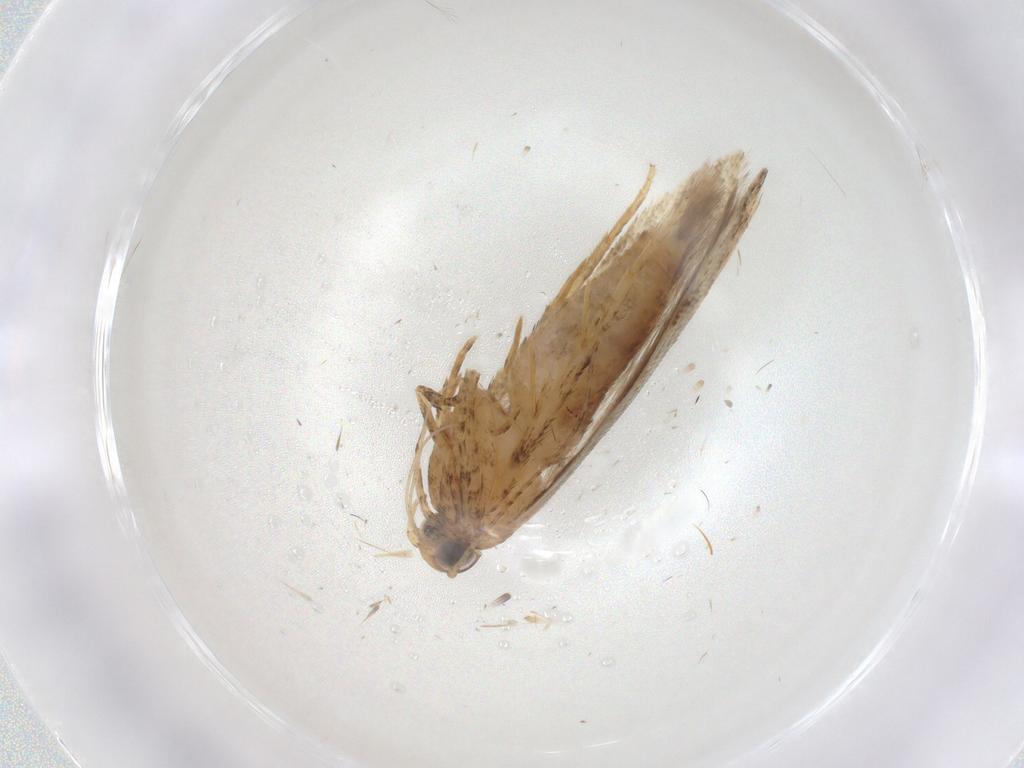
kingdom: Animalia
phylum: Arthropoda
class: Insecta
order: Lepidoptera
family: Gelechiidae
